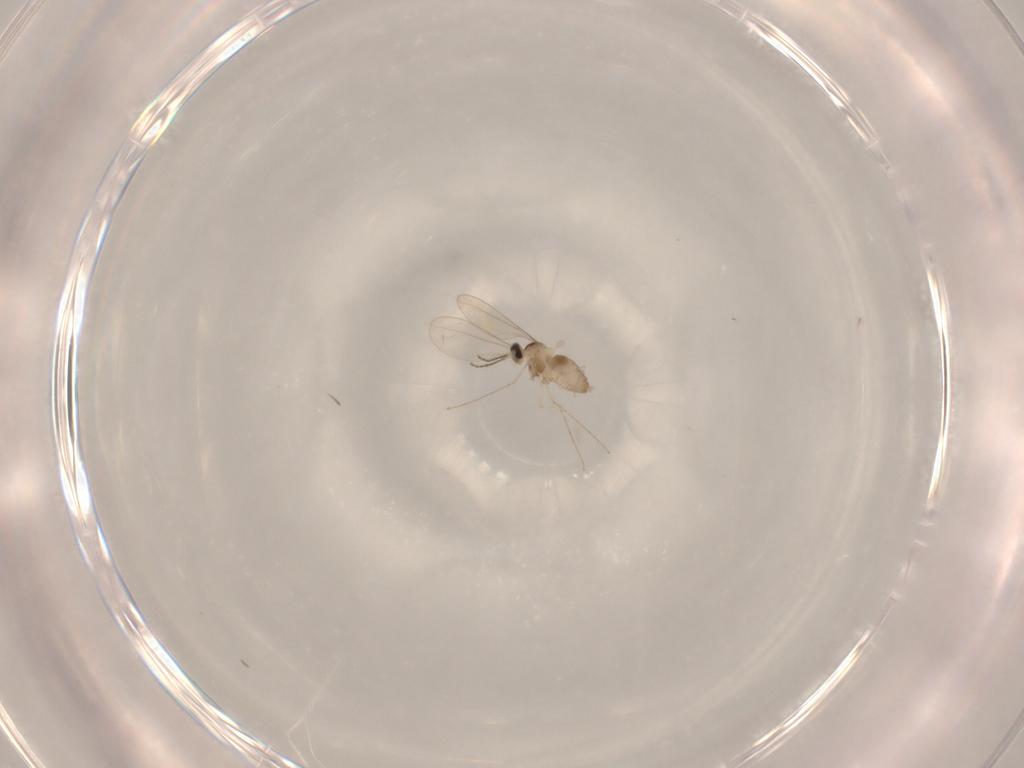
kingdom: Animalia
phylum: Arthropoda
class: Insecta
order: Diptera
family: Cecidomyiidae
